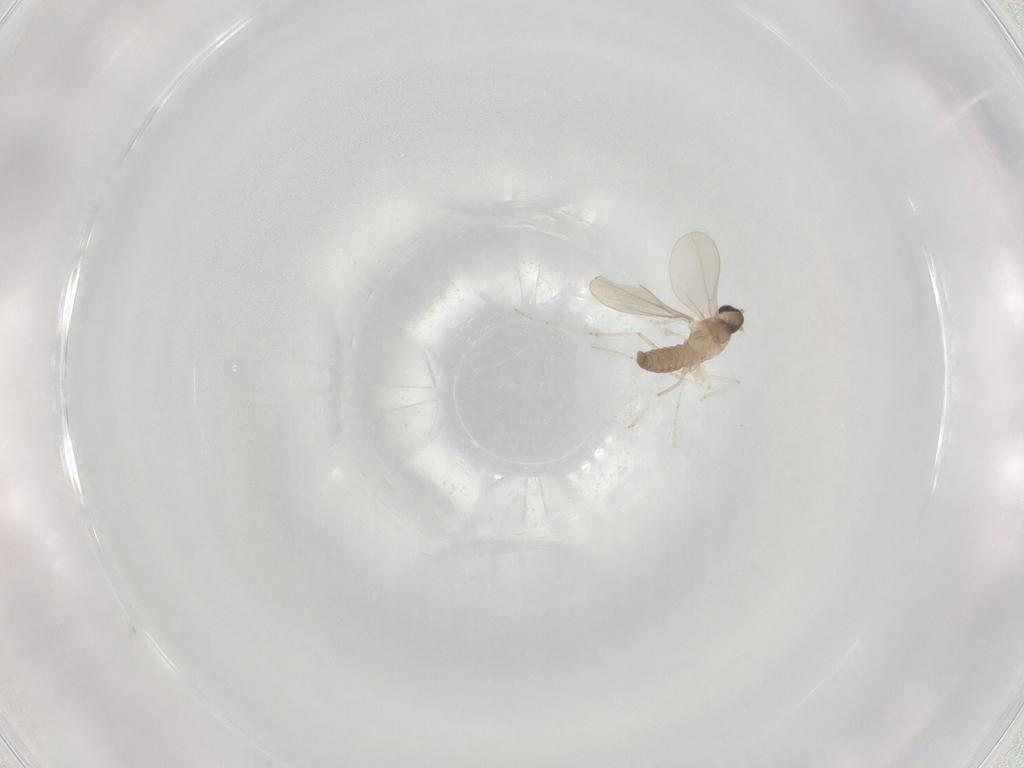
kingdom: Animalia
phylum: Arthropoda
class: Insecta
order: Diptera
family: Cecidomyiidae
